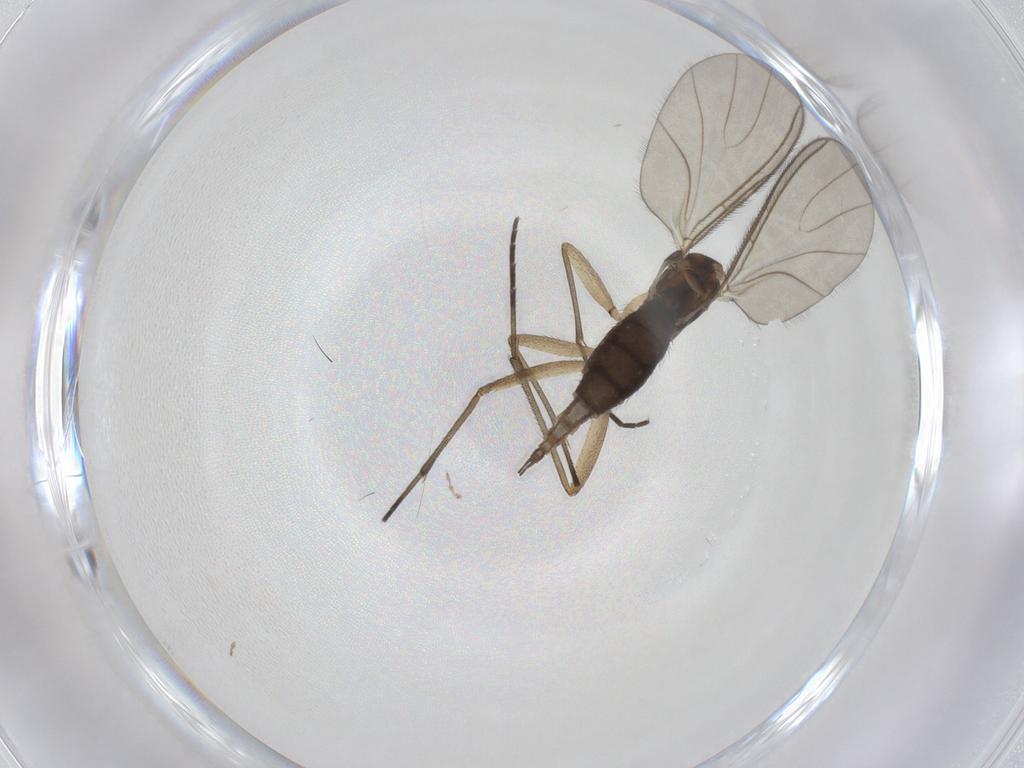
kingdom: Animalia
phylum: Arthropoda
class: Insecta
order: Diptera
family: Sciaridae
